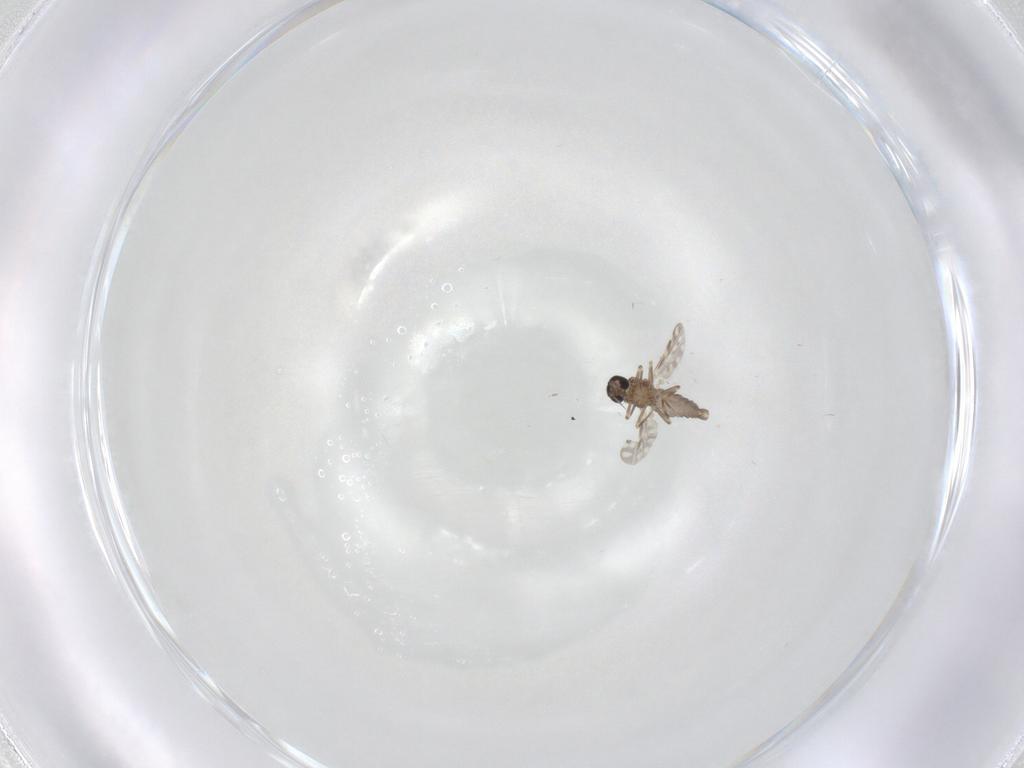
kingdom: Animalia
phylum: Arthropoda
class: Insecta
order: Diptera
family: Ceratopogonidae
